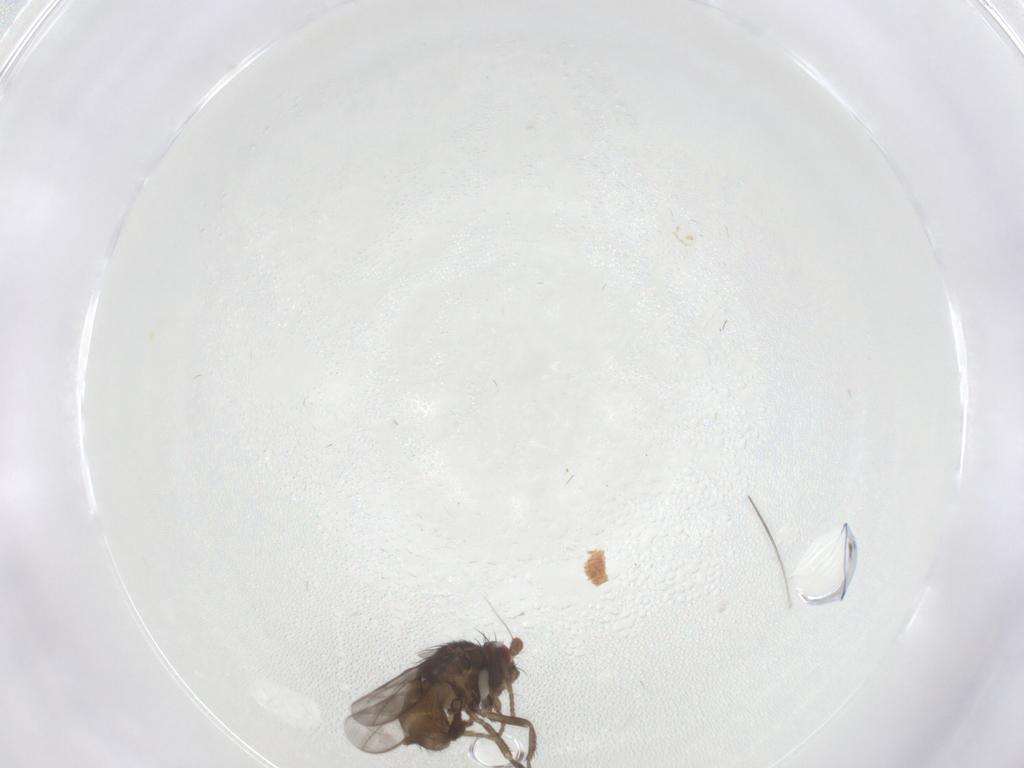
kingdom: Animalia
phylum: Arthropoda
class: Insecta
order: Diptera
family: Sphaeroceridae
